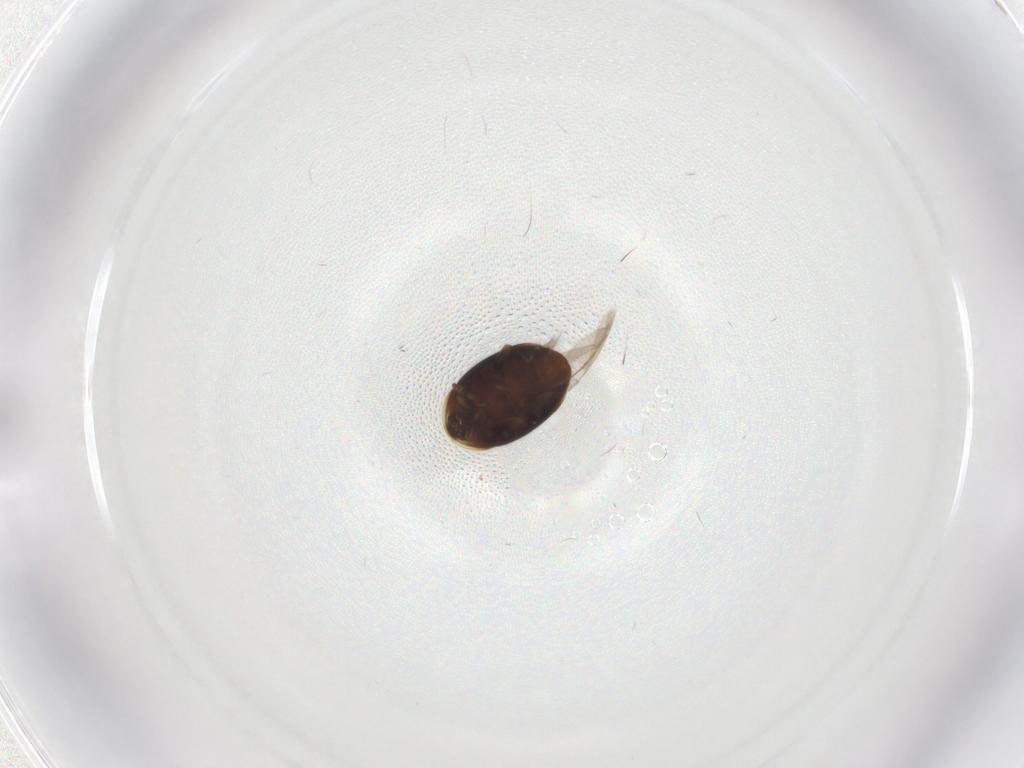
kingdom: Animalia
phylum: Arthropoda
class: Insecta
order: Coleoptera
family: Corylophidae
